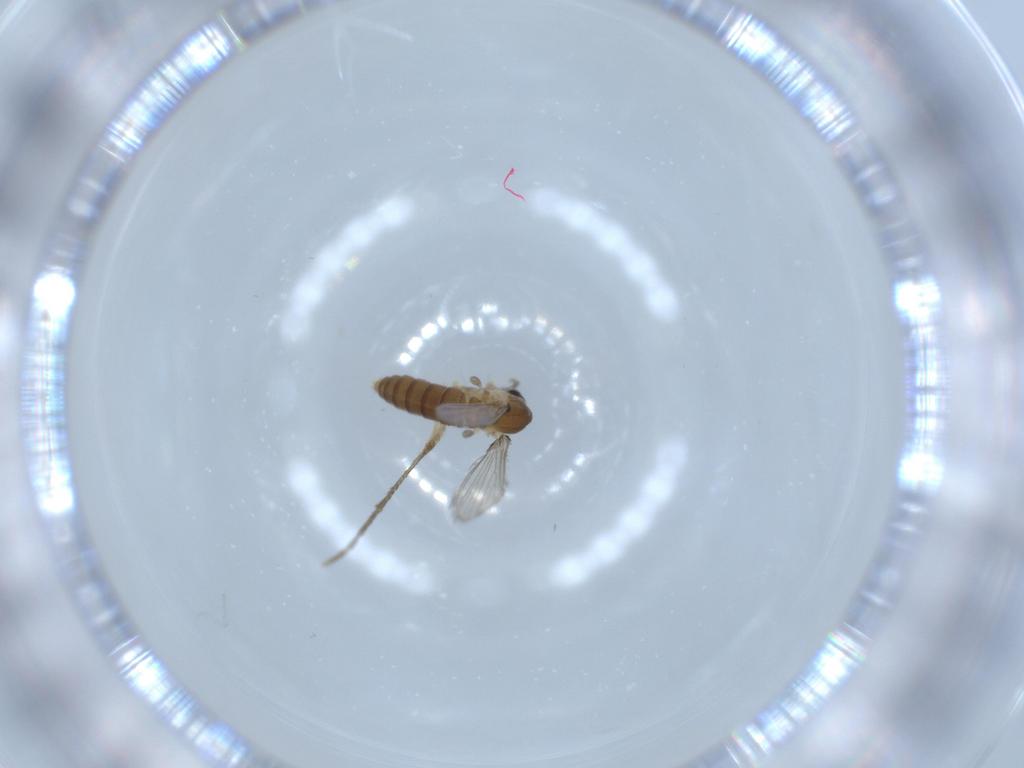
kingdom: Animalia
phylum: Arthropoda
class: Insecta
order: Diptera
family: Psychodidae
